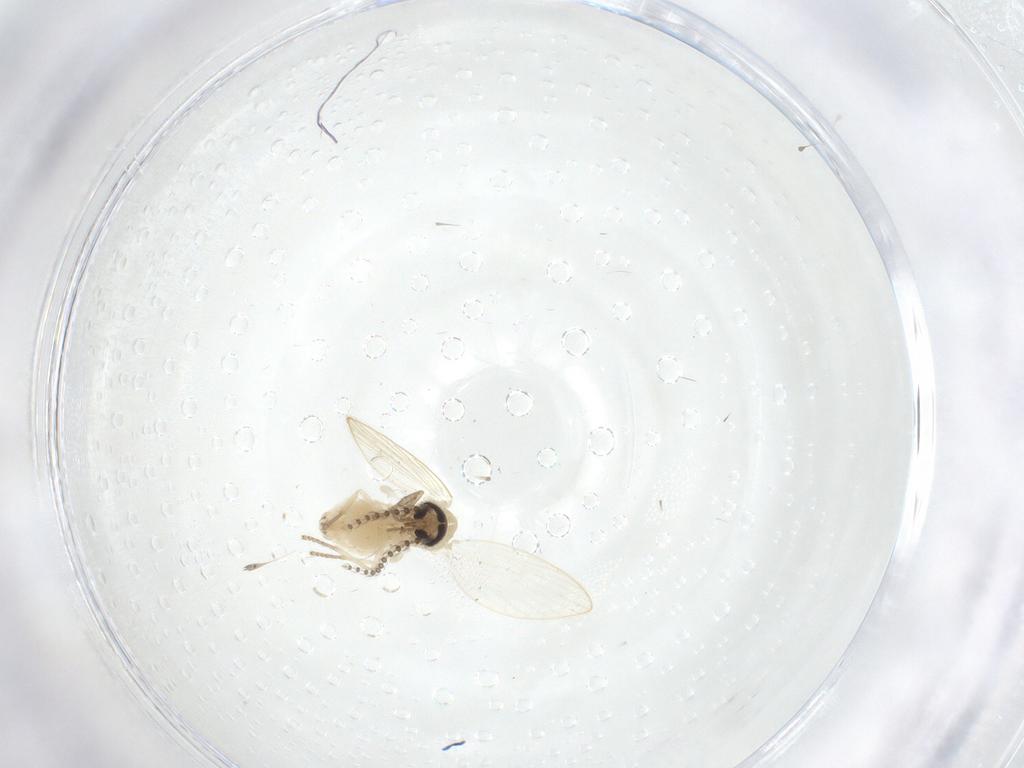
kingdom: Animalia
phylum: Arthropoda
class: Insecta
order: Diptera
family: Psychodidae
